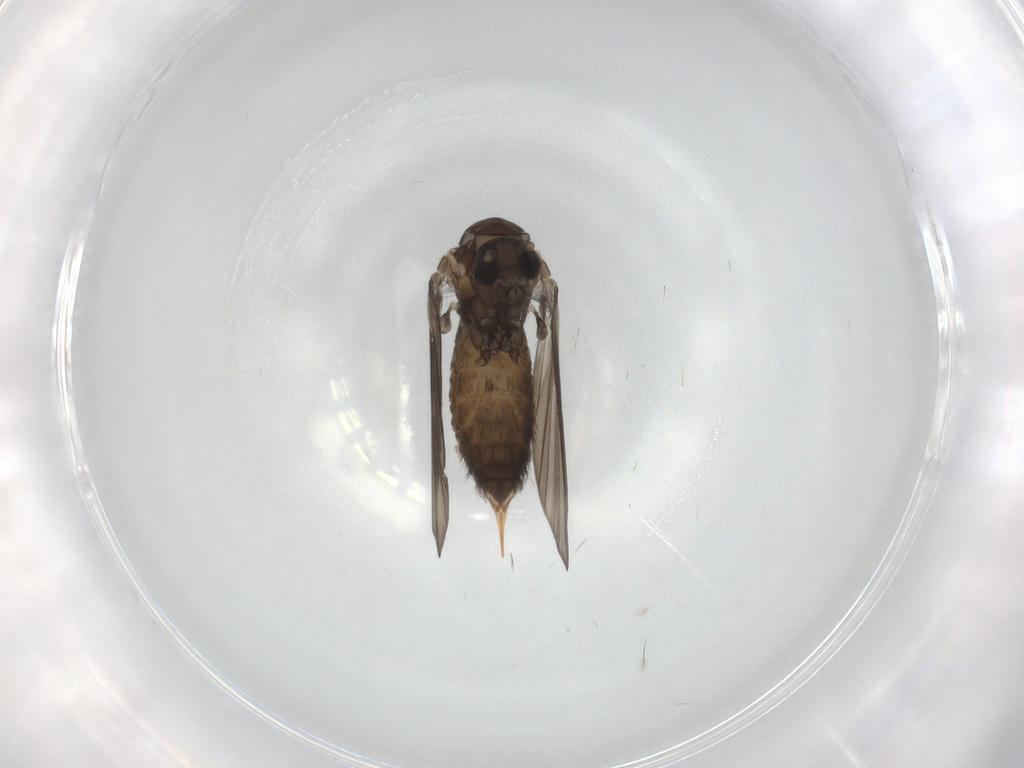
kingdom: Animalia
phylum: Arthropoda
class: Insecta
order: Diptera
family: Psychodidae
